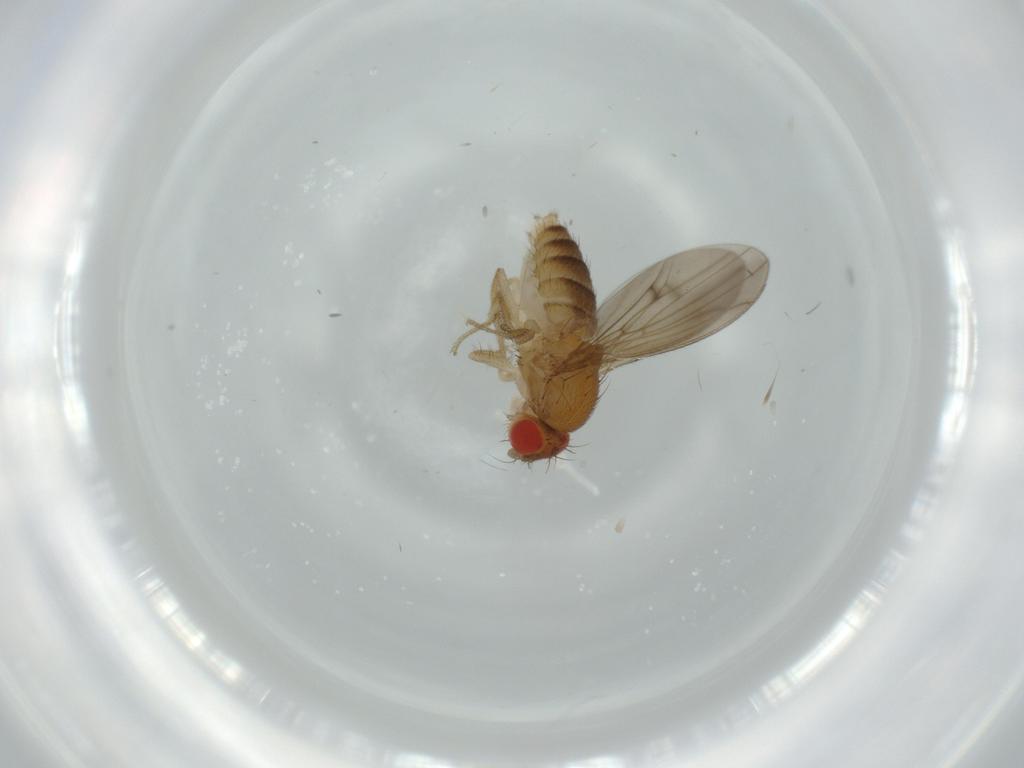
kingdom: Animalia
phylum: Arthropoda
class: Insecta
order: Diptera
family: Drosophilidae
